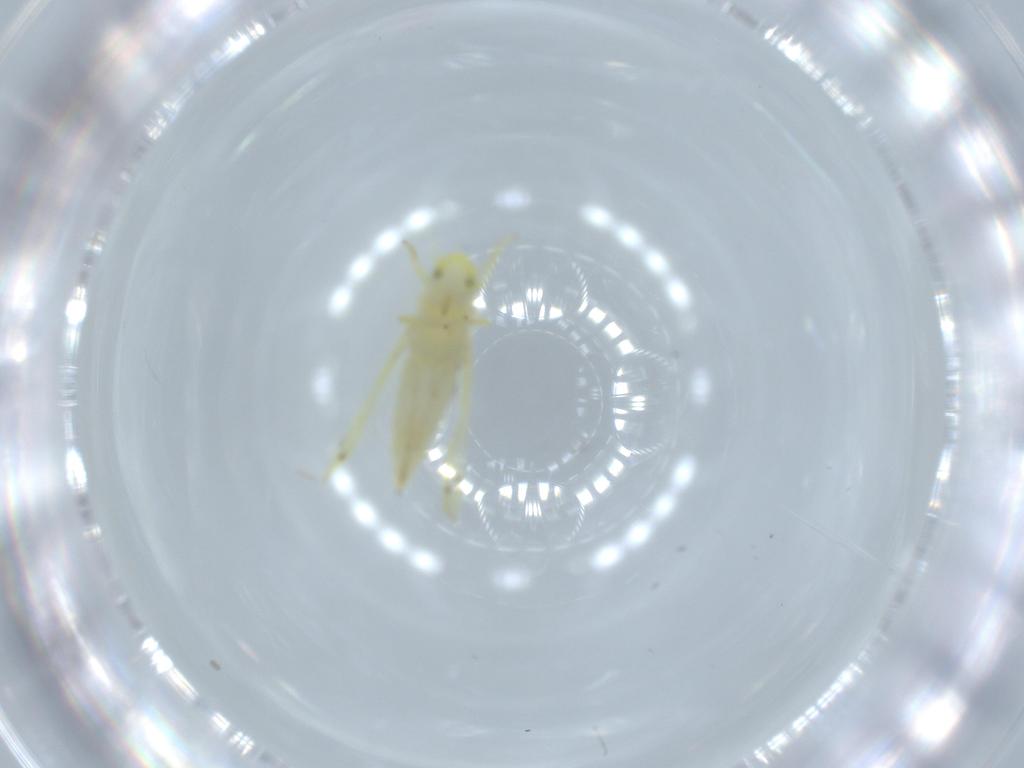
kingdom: Animalia
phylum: Arthropoda
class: Insecta
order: Hemiptera
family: Cicadellidae
